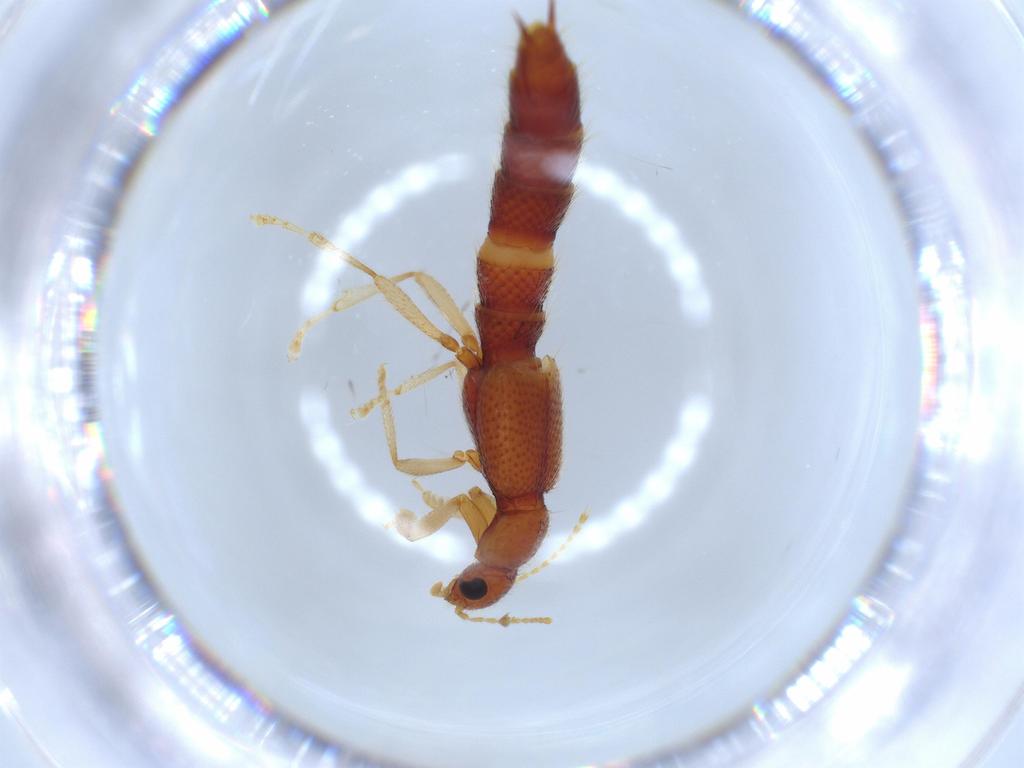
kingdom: Animalia
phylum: Arthropoda
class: Insecta
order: Coleoptera
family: Staphylinidae
